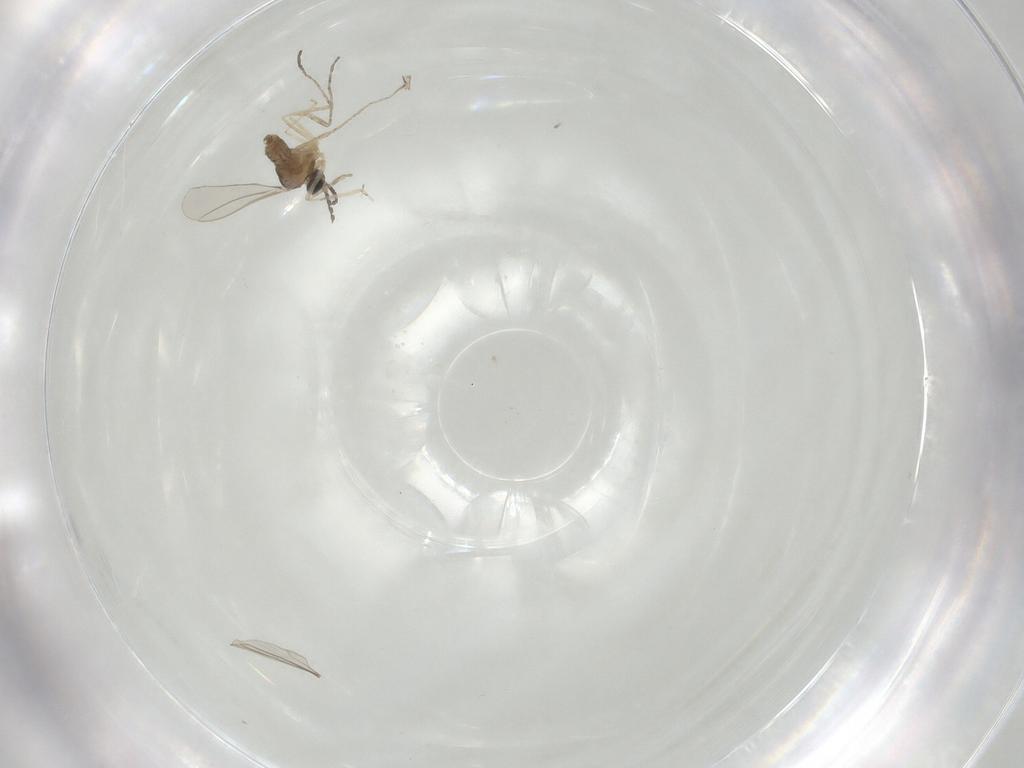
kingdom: Animalia
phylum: Arthropoda
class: Insecta
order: Diptera
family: Cecidomyiidae
